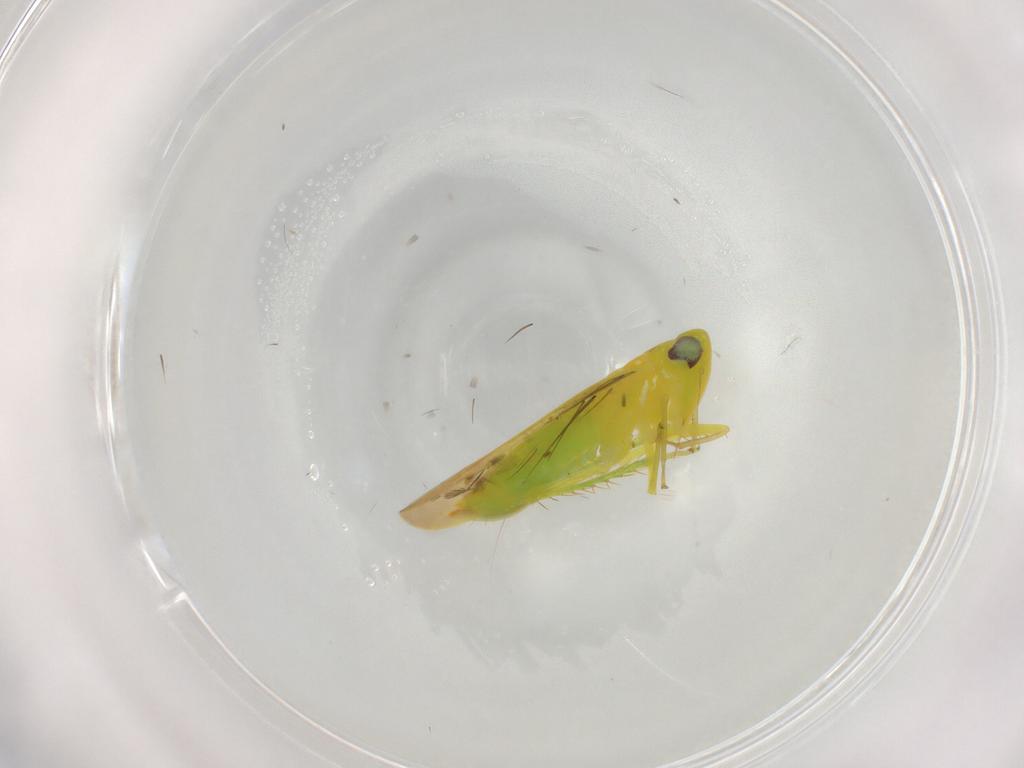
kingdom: Animalia
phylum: Arthropoda
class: Insecta
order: Hemiptera
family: Cicadellidae
